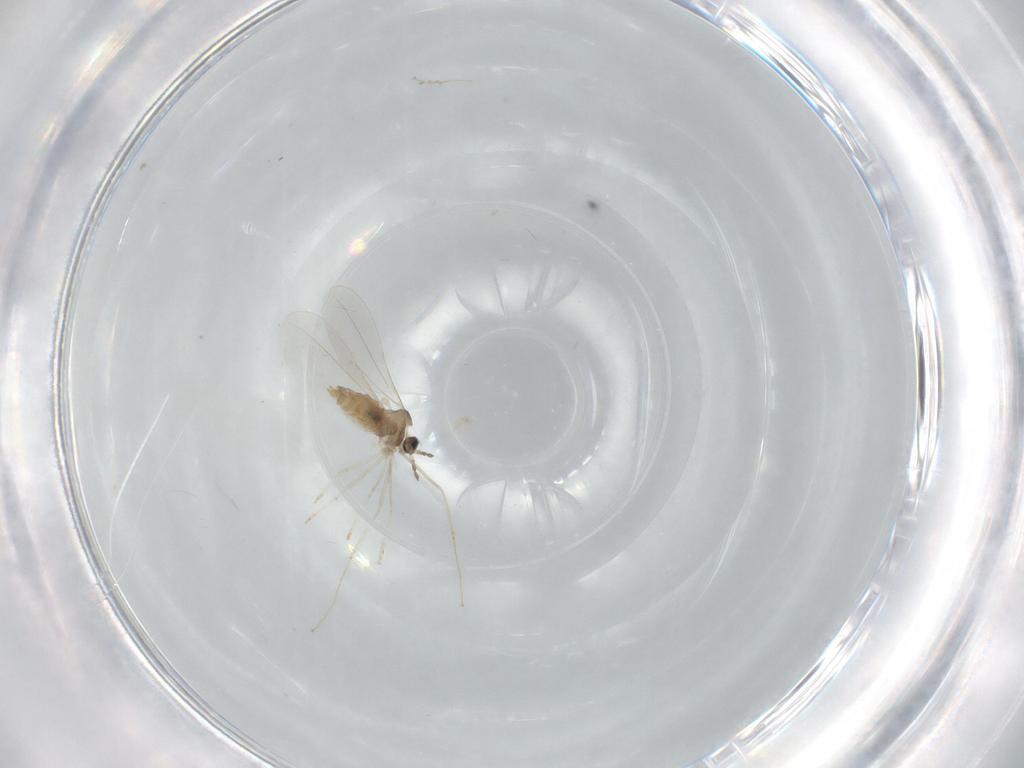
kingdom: Animalia
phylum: Arthropoda
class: Insecta
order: Diptera
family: Cecidomyiidae
